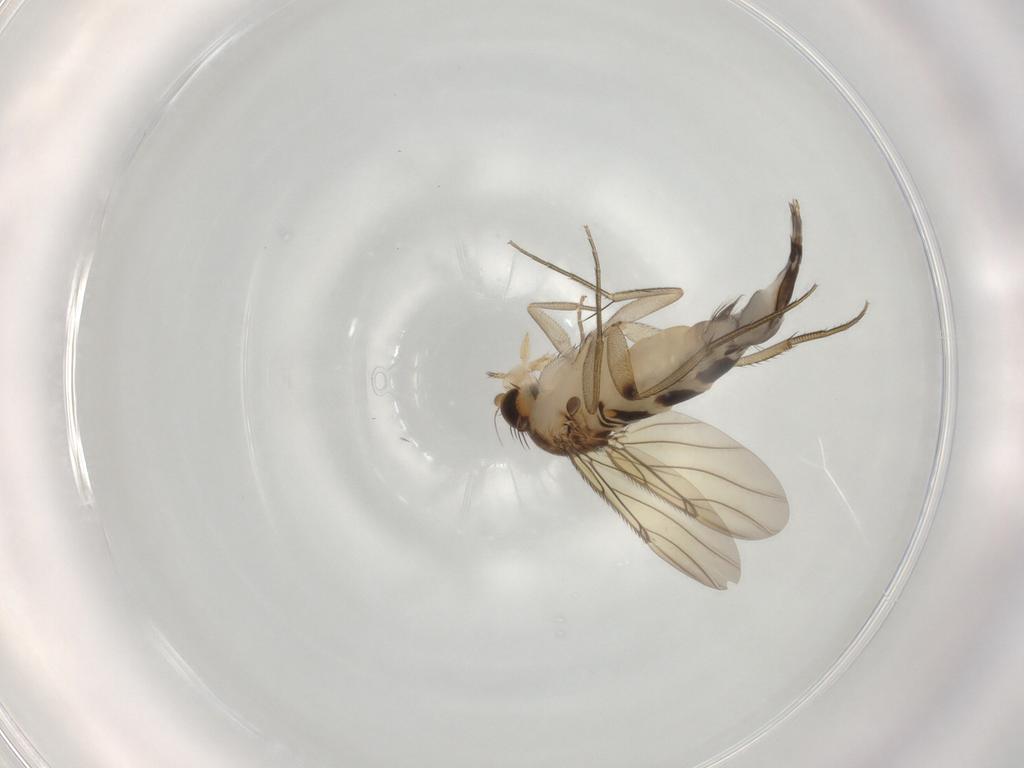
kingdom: Animalia
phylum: Arthropoda
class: Insecta
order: Diptera
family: Phoridae
